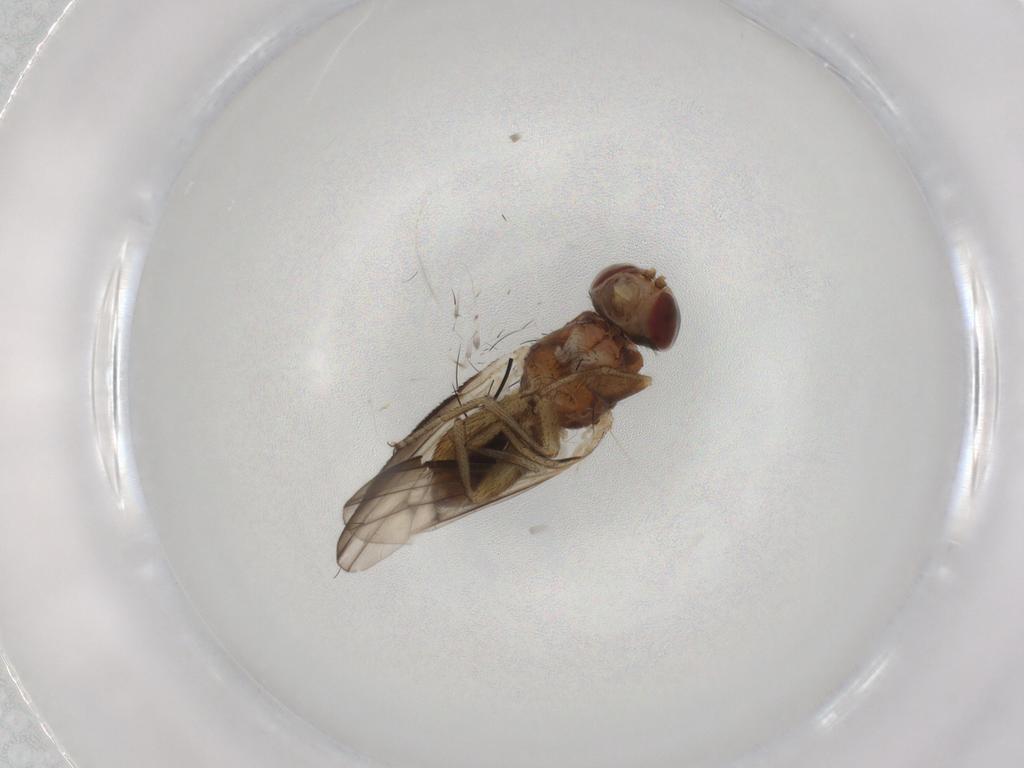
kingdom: Animalia
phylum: Arthropoda
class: Insecta
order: Diptera
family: Heleomyzidae
